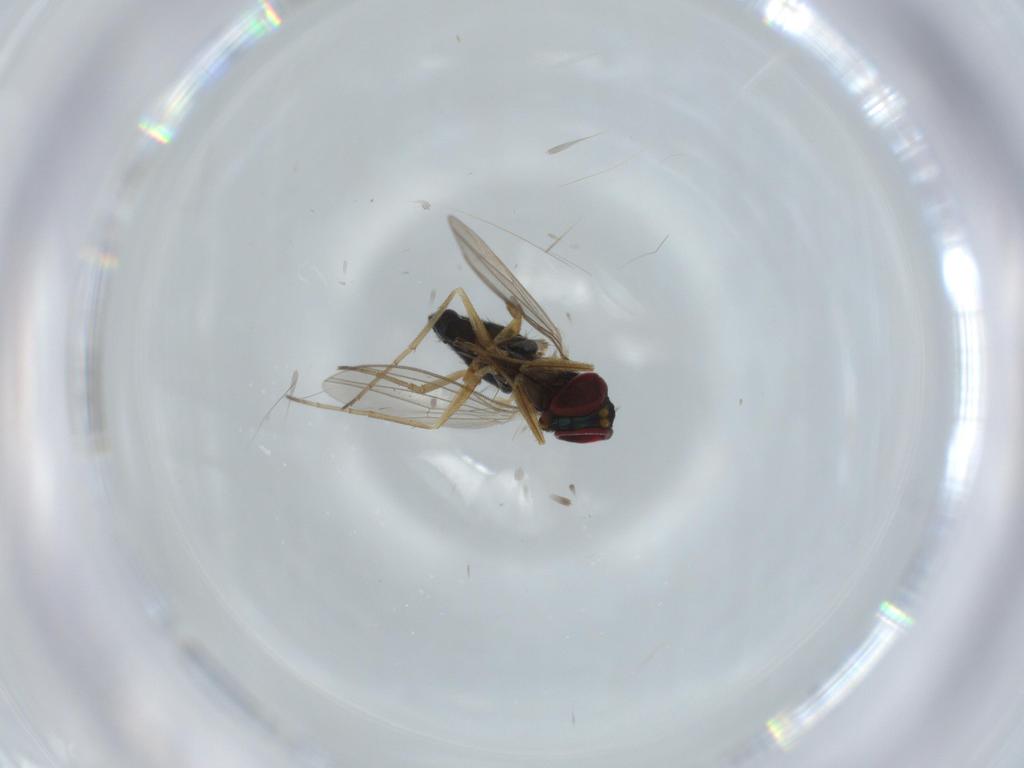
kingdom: Animalia
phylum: Arthropoda
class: Insecta
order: Diptera
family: Dolichopodidae
